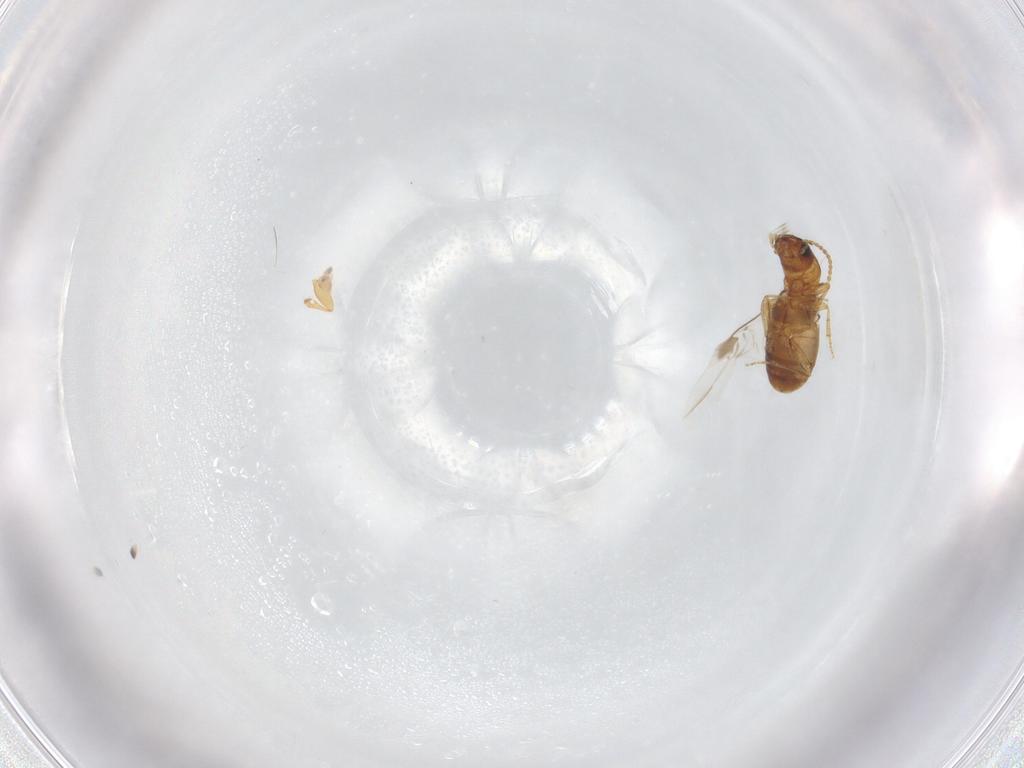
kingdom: Animalia
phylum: Arthropoda
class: Insecta
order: Coleoptera
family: Carabidae
